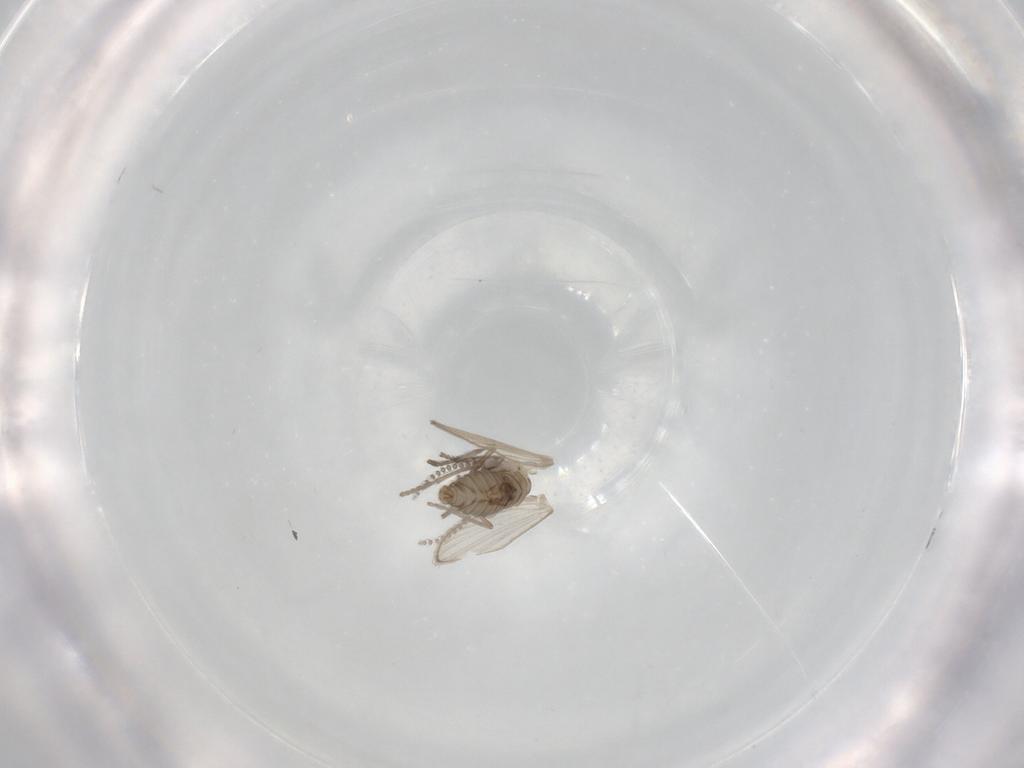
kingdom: Animalia
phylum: Arthropoda
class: Insecta
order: Diptera
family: Psychodidae
